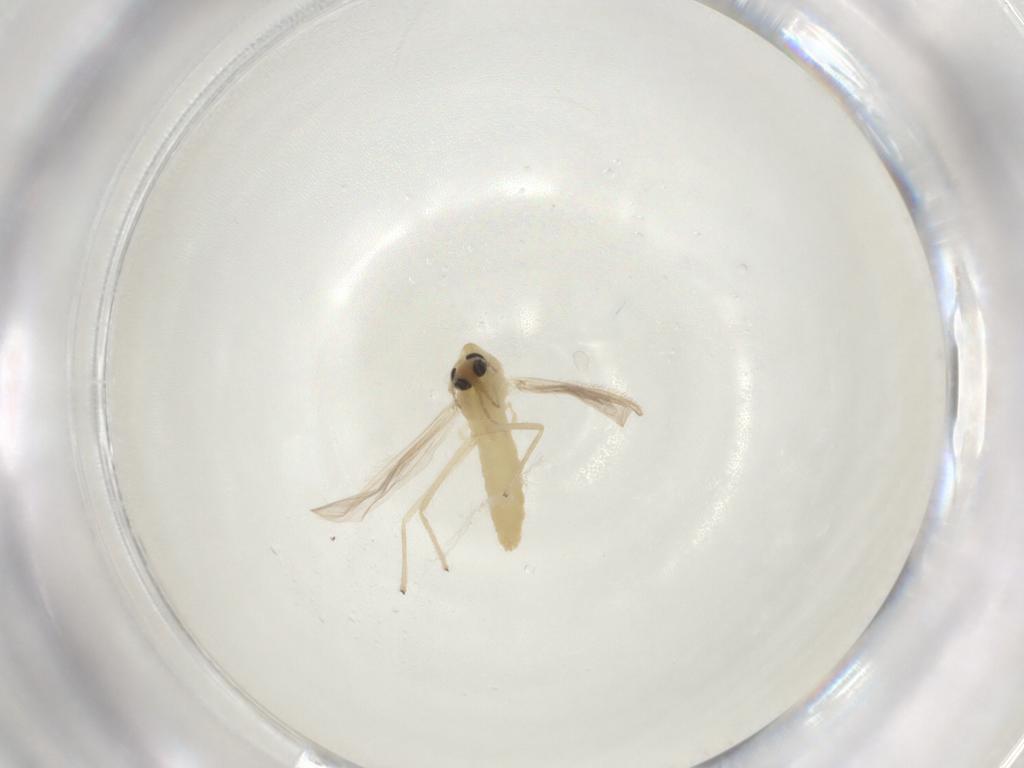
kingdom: Animalia
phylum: Arthropoda
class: Insecta
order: Diptera
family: Chironomidae
